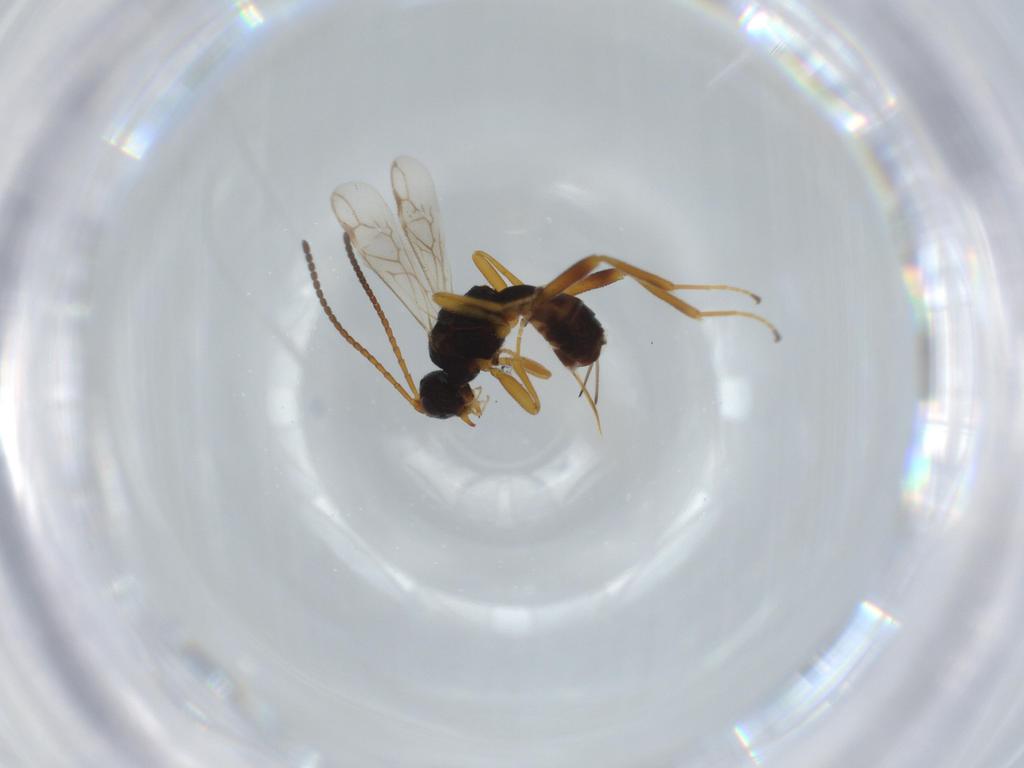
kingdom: Animalia
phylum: Arthropoda
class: Insecta
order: Hymenoptera
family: Braconidae
